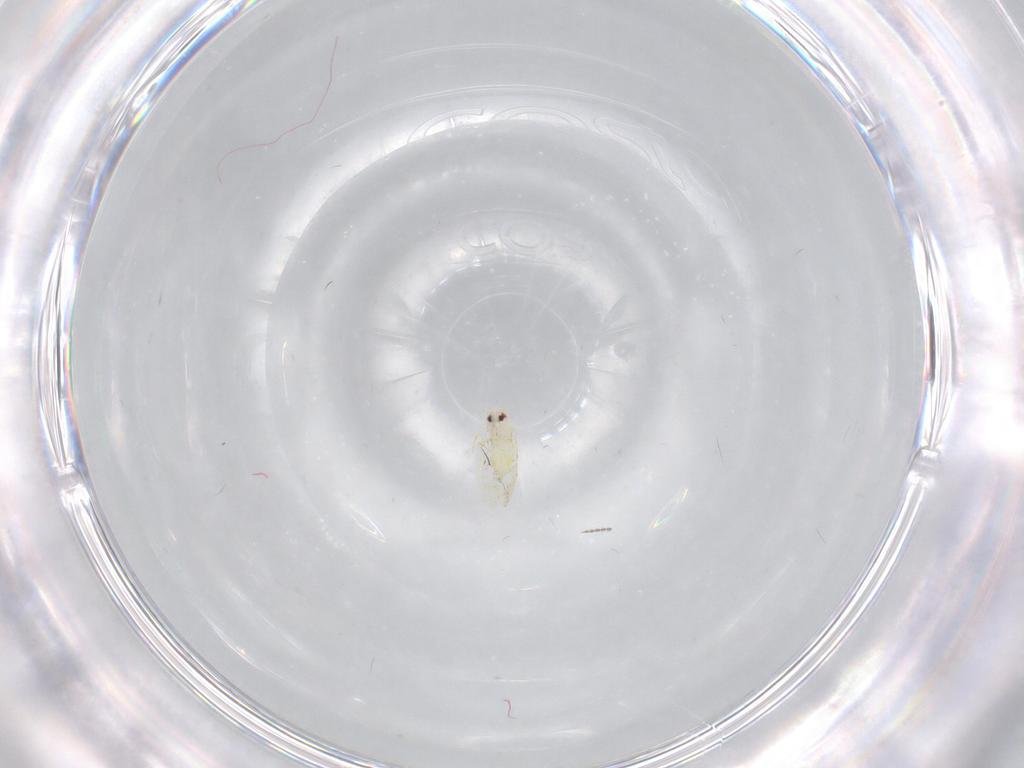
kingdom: Animalia
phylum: Arthropoda
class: Insecta
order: Hemiptera
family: Aleyrodidae
